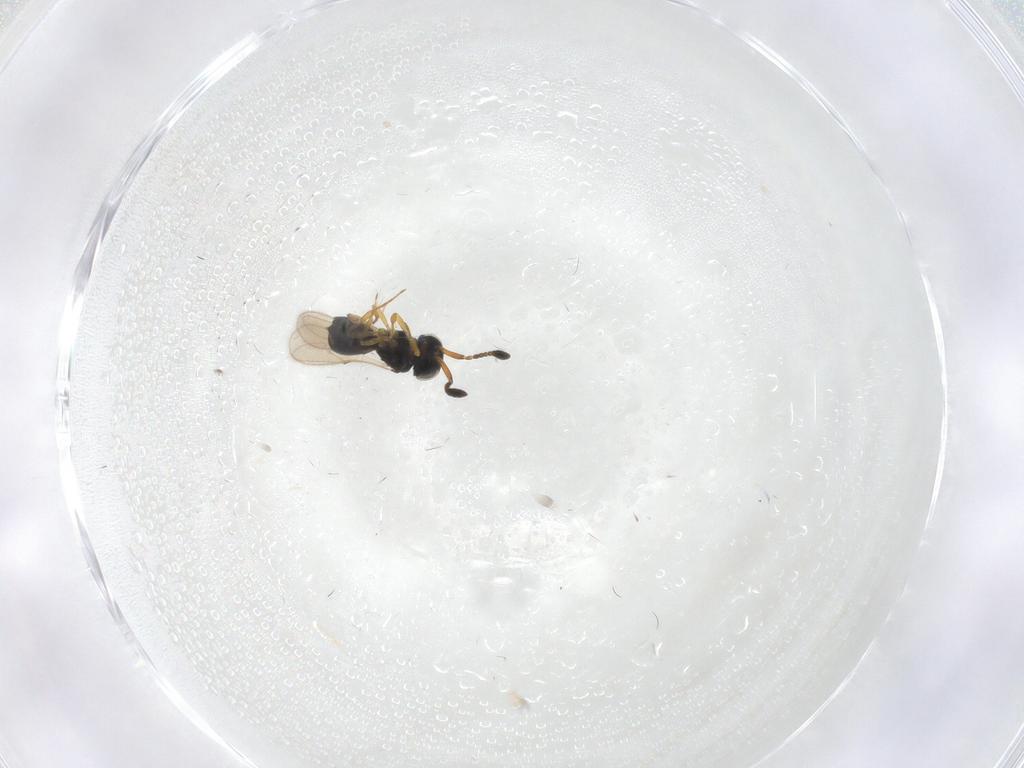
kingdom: Animalia
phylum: Arthropoda
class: Insecta
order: Hymenoptera
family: Scelionidae
